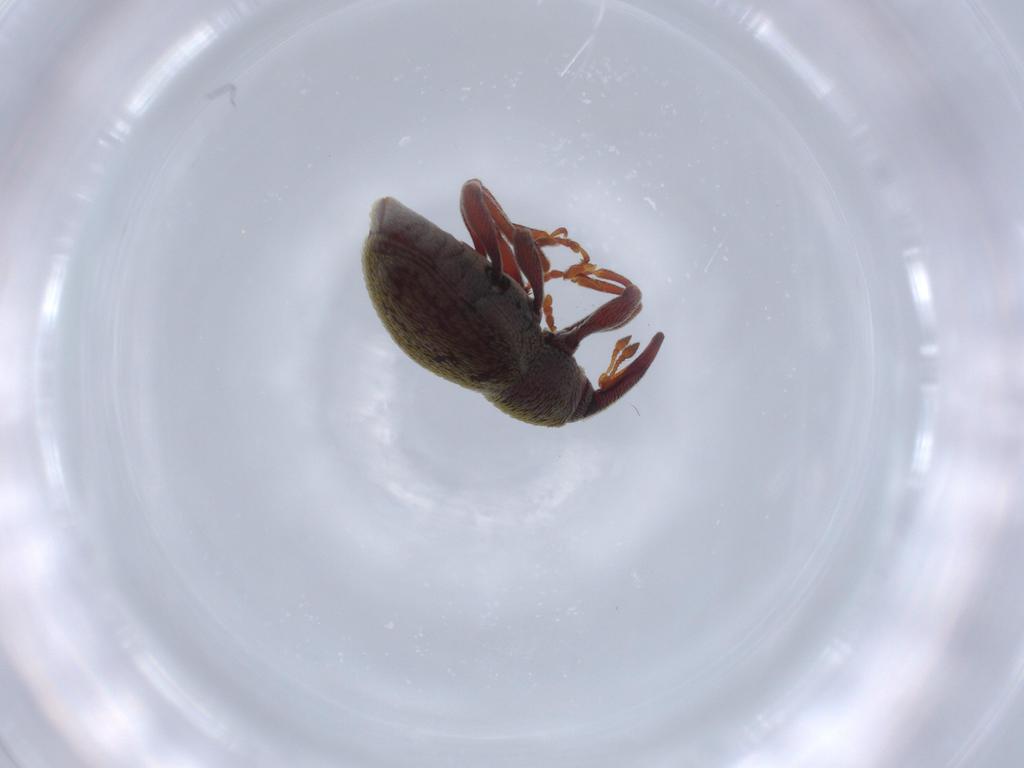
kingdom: Animalia
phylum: Arthropoda
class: Insecta
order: Coleoptera
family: Curculionidae
